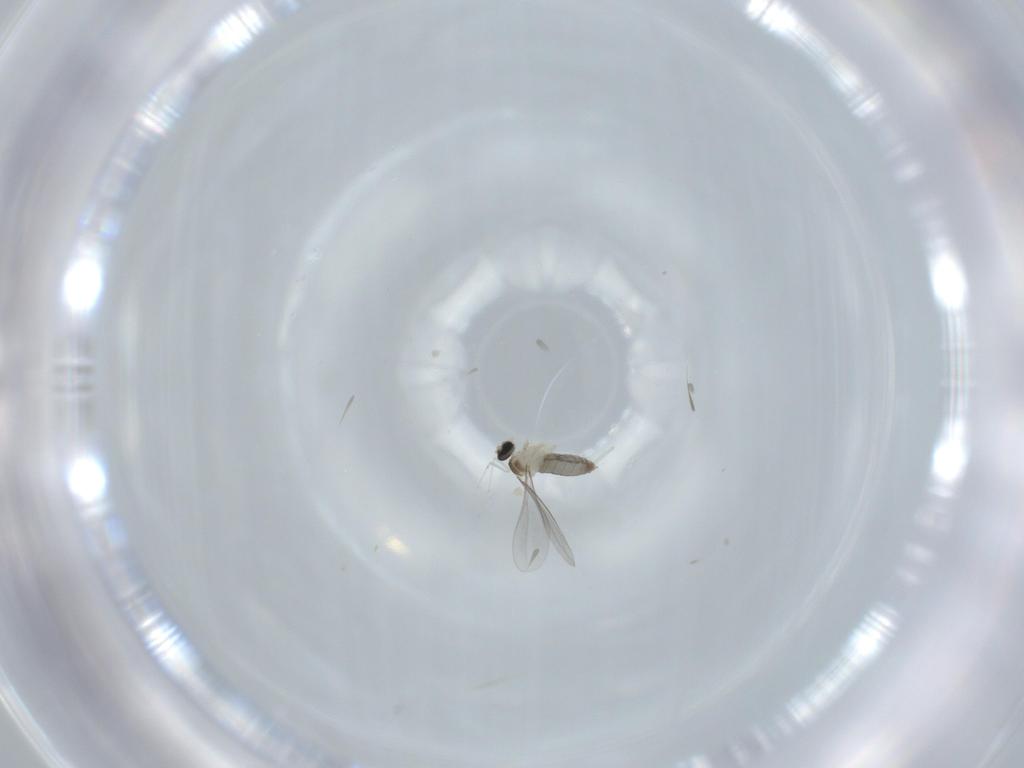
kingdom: Animalia
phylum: Arthropoda
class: Insecta
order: Diptera
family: Cecidomyiidae
